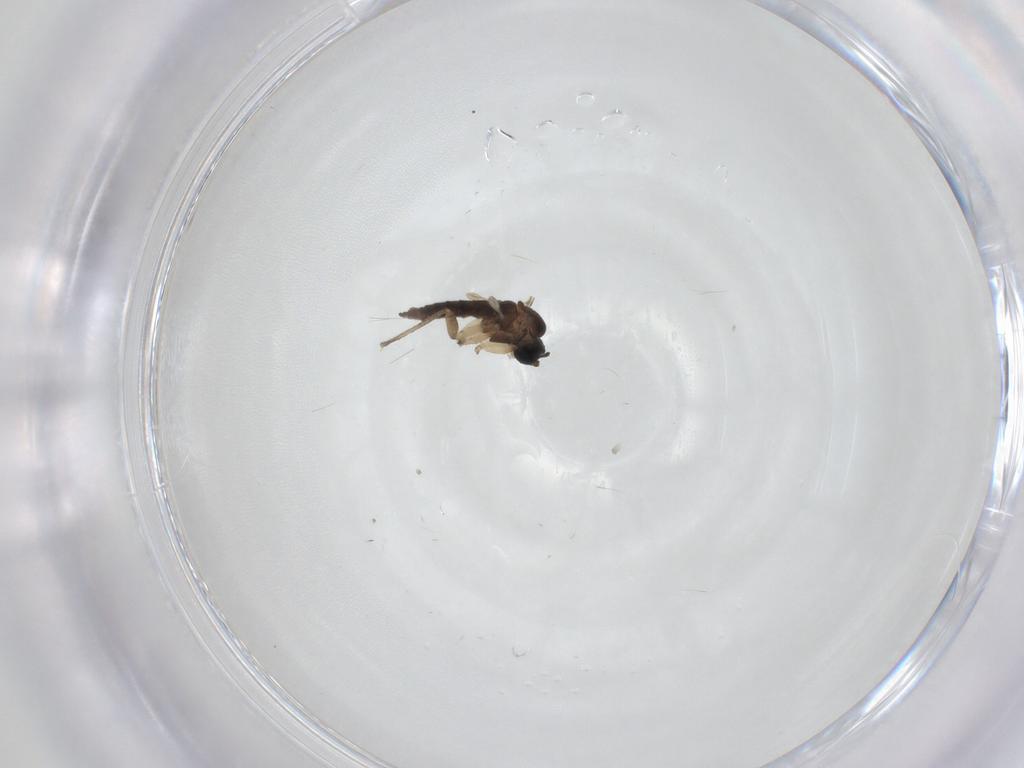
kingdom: Animalia
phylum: Arthropoda
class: Insecta
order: Diptera
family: Sciaridae
